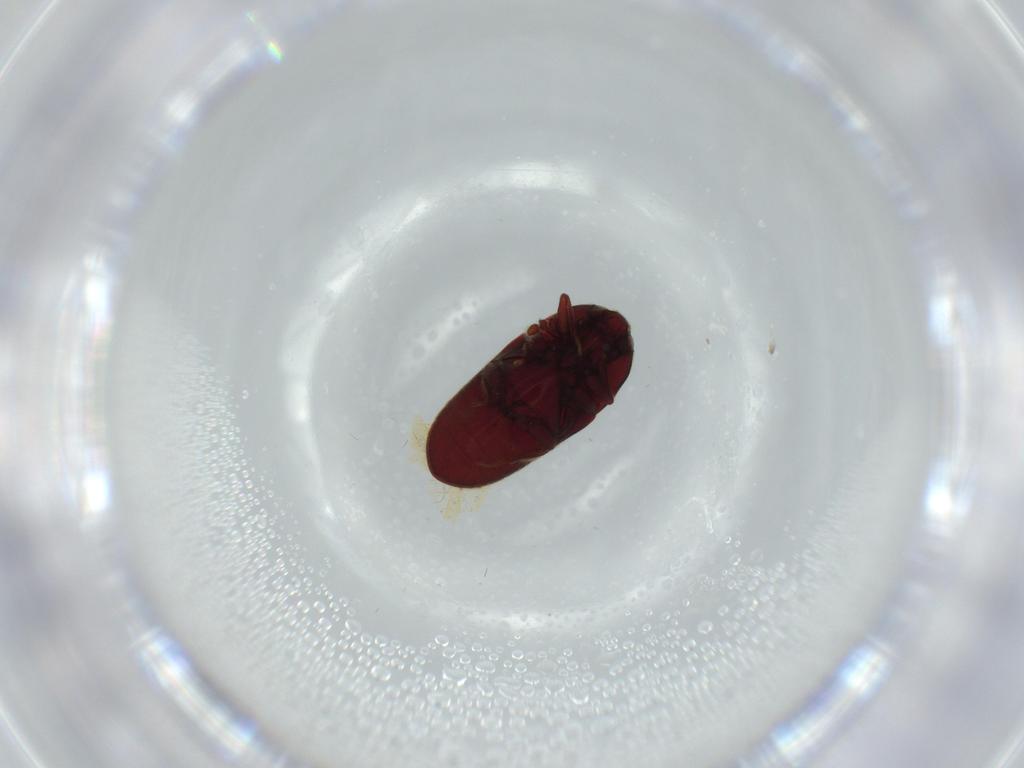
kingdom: Animalia
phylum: Arthropoda
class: Insecta
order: Coleoptera
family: Throscidae
